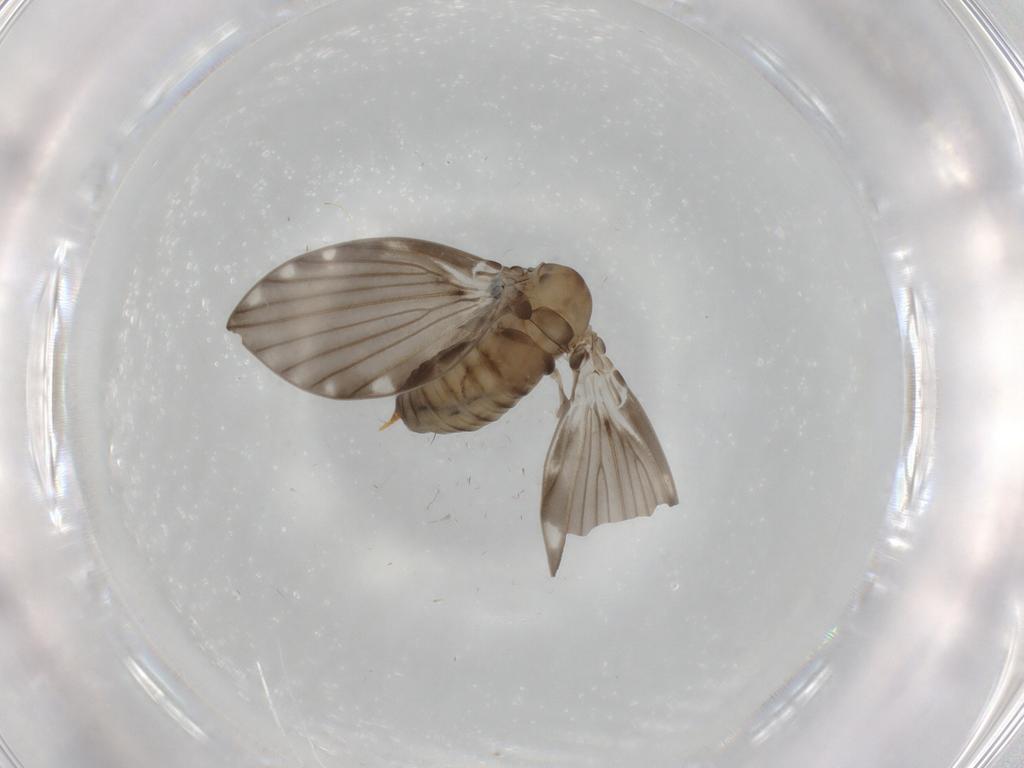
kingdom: Animalia
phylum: Arthropoda
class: Insecta
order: Diptera
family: Psychodidae
